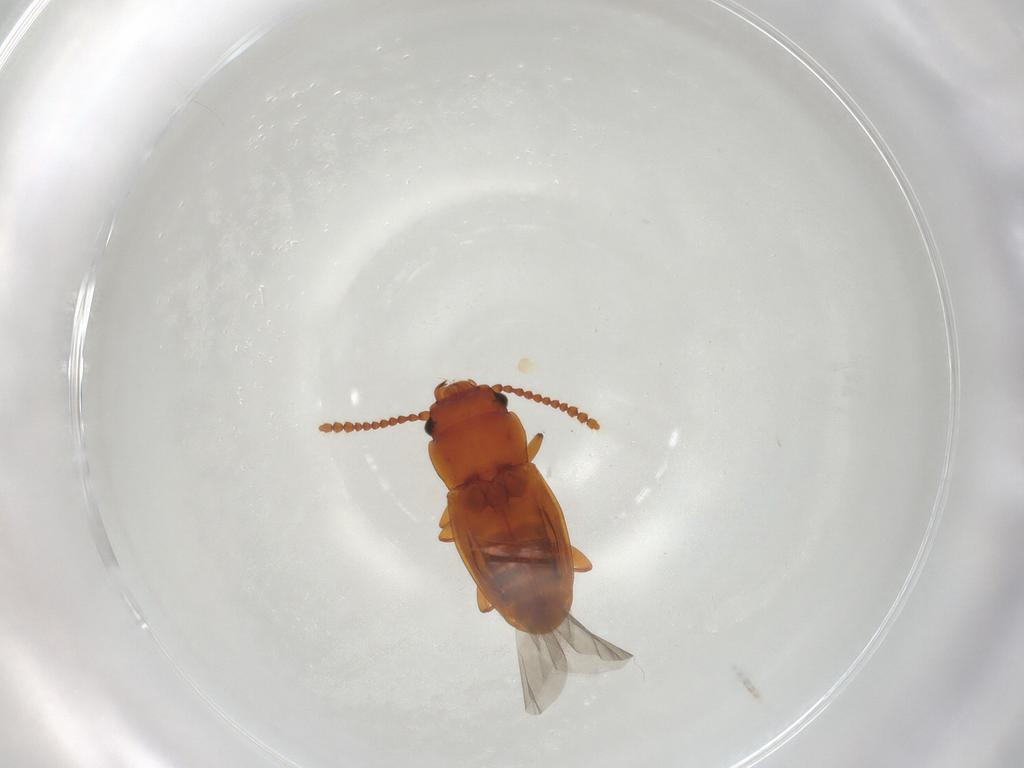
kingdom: Animalia
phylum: Arthropoda
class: Insecta
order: Coleoptera
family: Laemophloeidae
